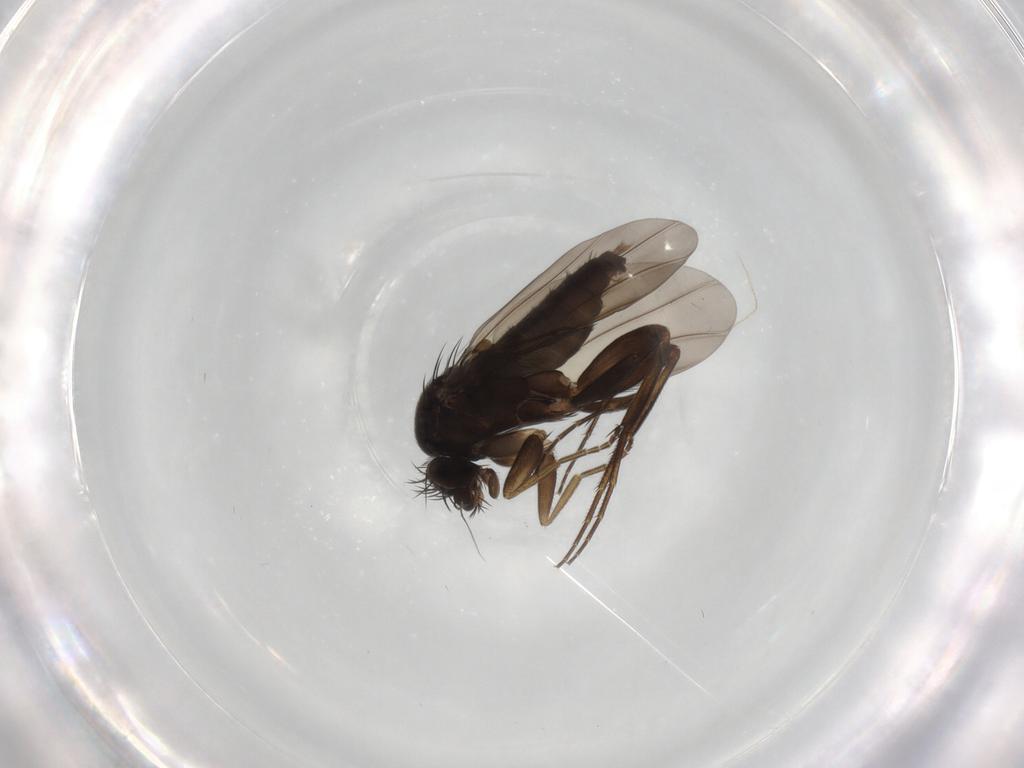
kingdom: Animalia
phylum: Arthropoda
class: Insecta
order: Diptera
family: Phoridae
